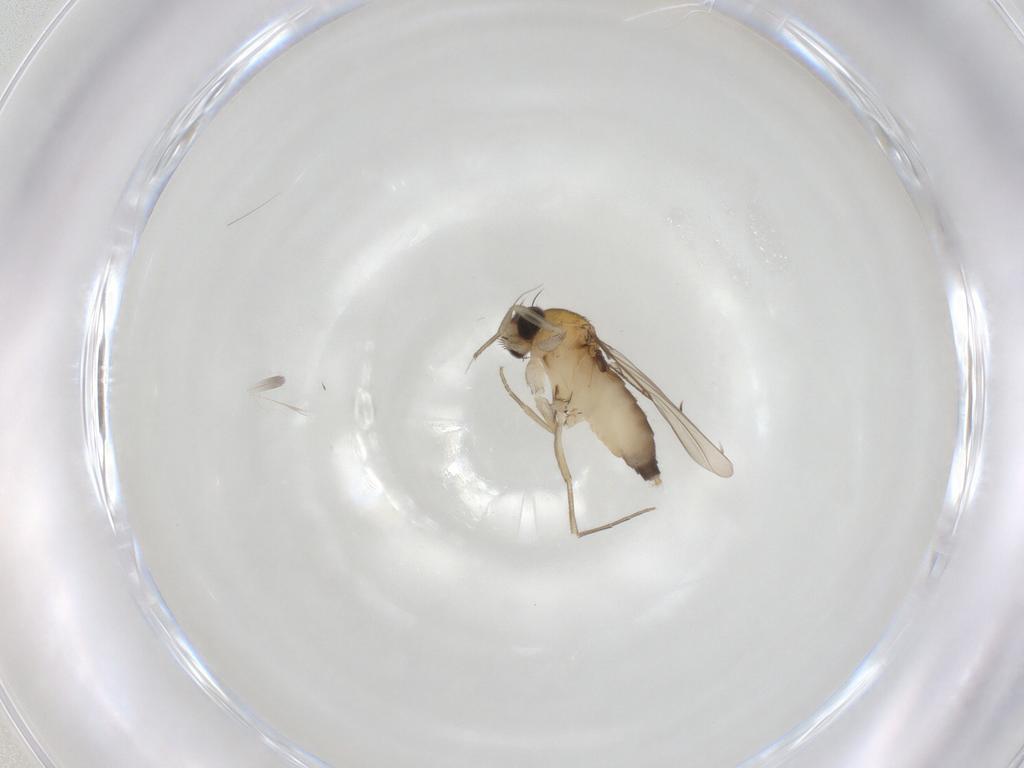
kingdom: Animalia
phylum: Arthropoda
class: Insecta
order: Diptera
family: Phoridae
